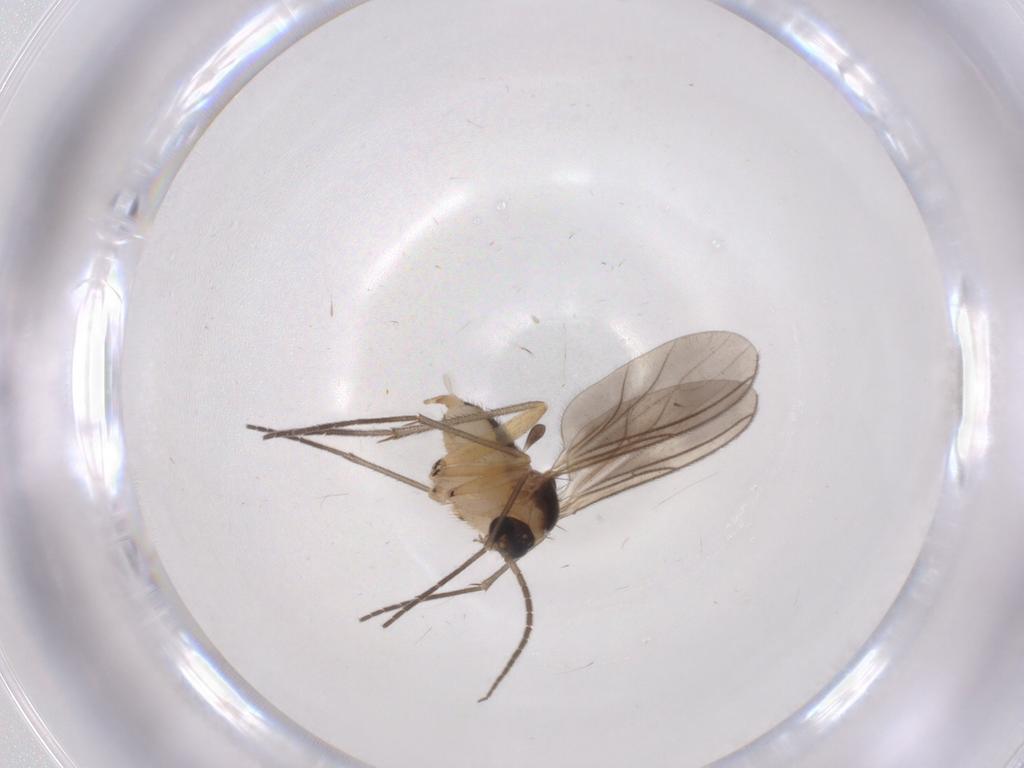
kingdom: Animalia
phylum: Arthropoda
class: Insecta
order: Diptera
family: Sciaridae
